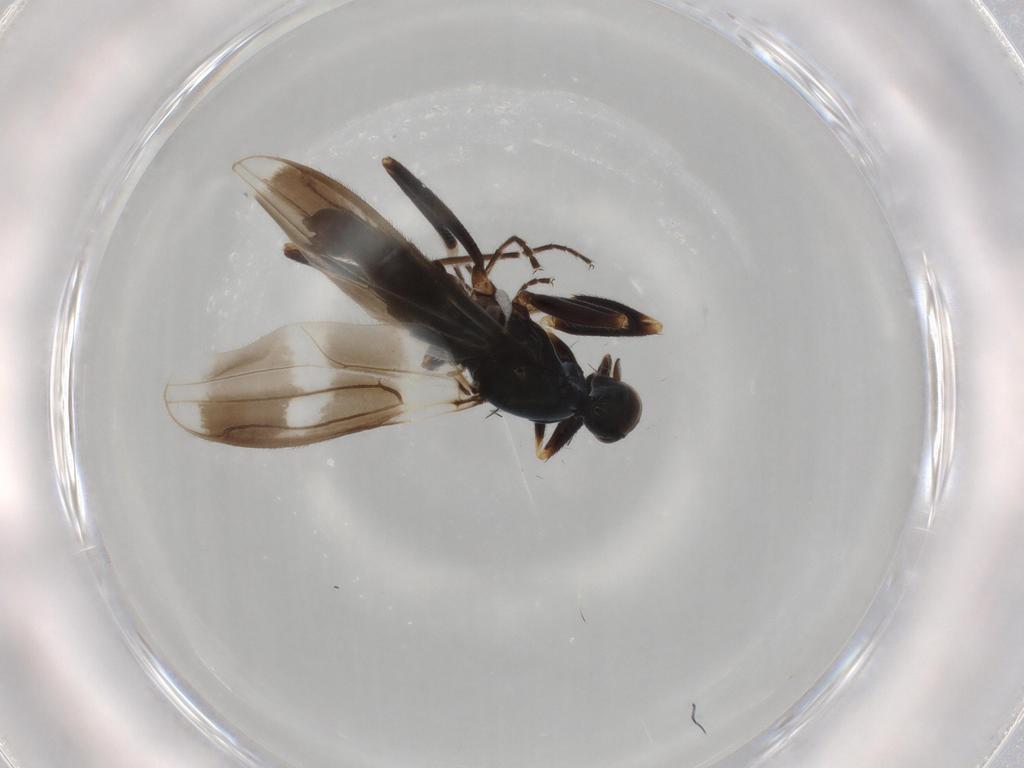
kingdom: Animalia
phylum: Arthropoda
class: Insecta
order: Diptera
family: Hybotidae
